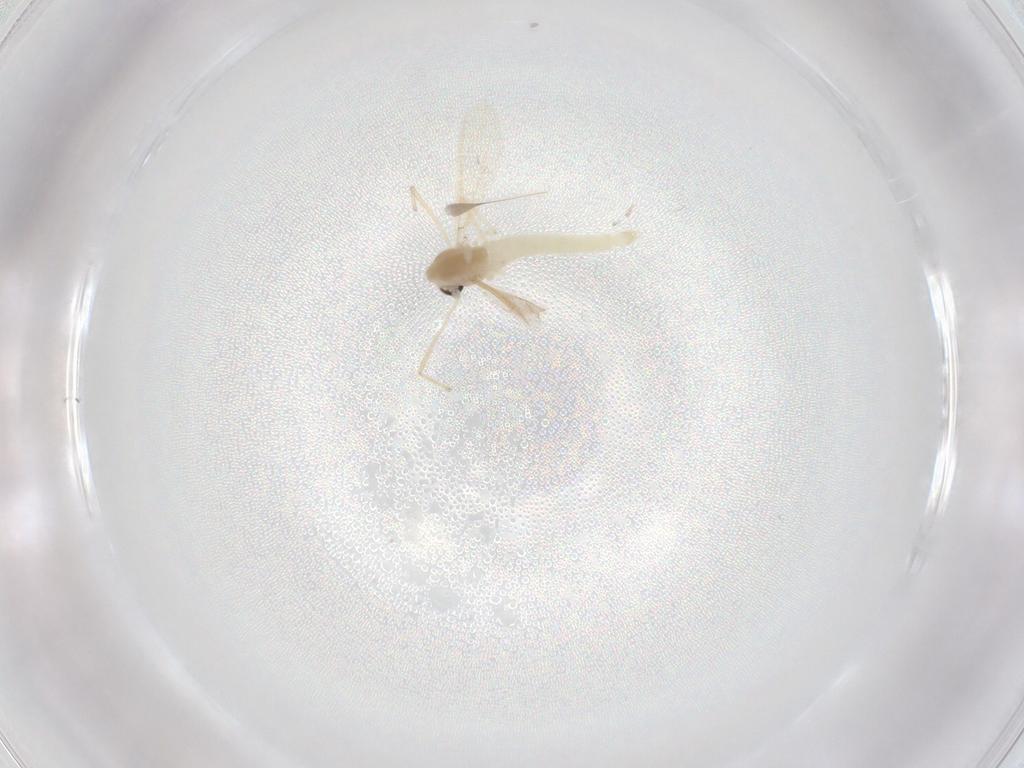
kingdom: Animalia
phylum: Arthropoda
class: Insecta
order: Diptera
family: Chironomidae
